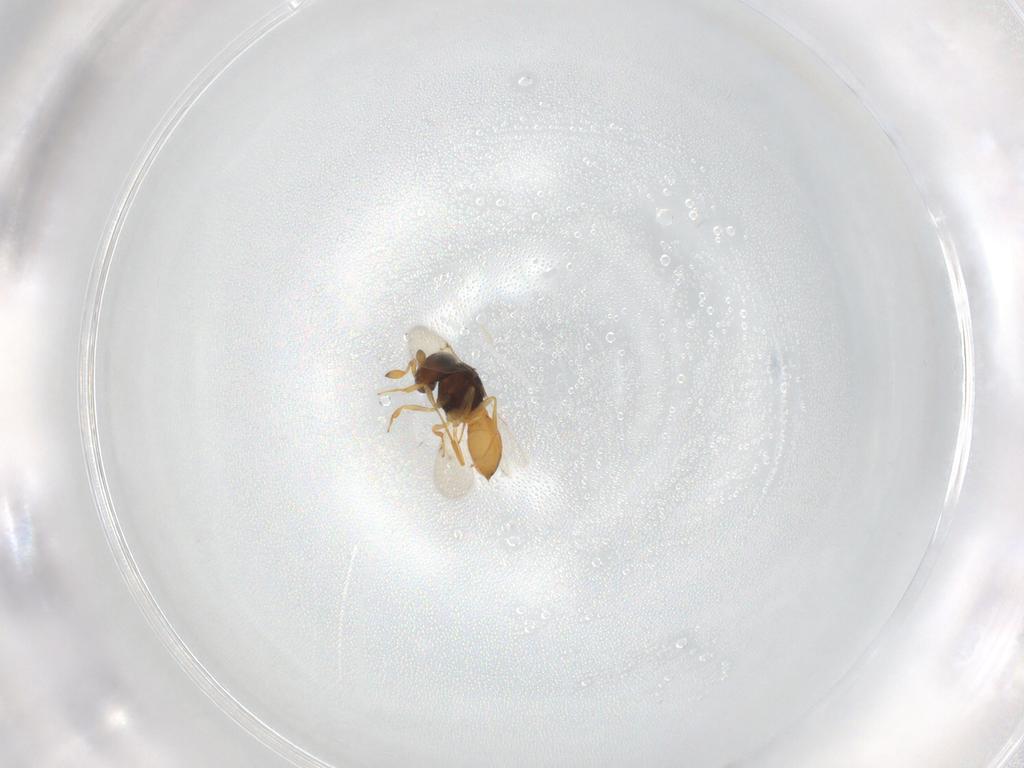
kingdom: Animalia
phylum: Arthropoda
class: Insecta
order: Hymenoptera
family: Scelionidae
